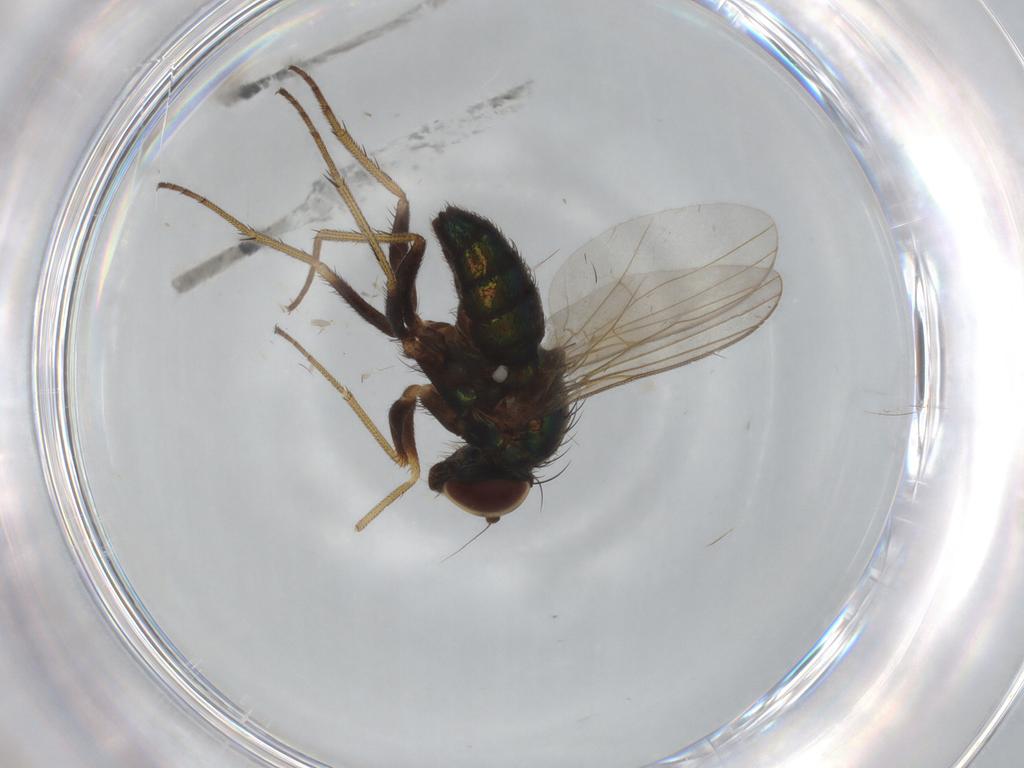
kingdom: Animalia
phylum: Arthropoda
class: Insecta
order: Diptera
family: Dolichopodidae
